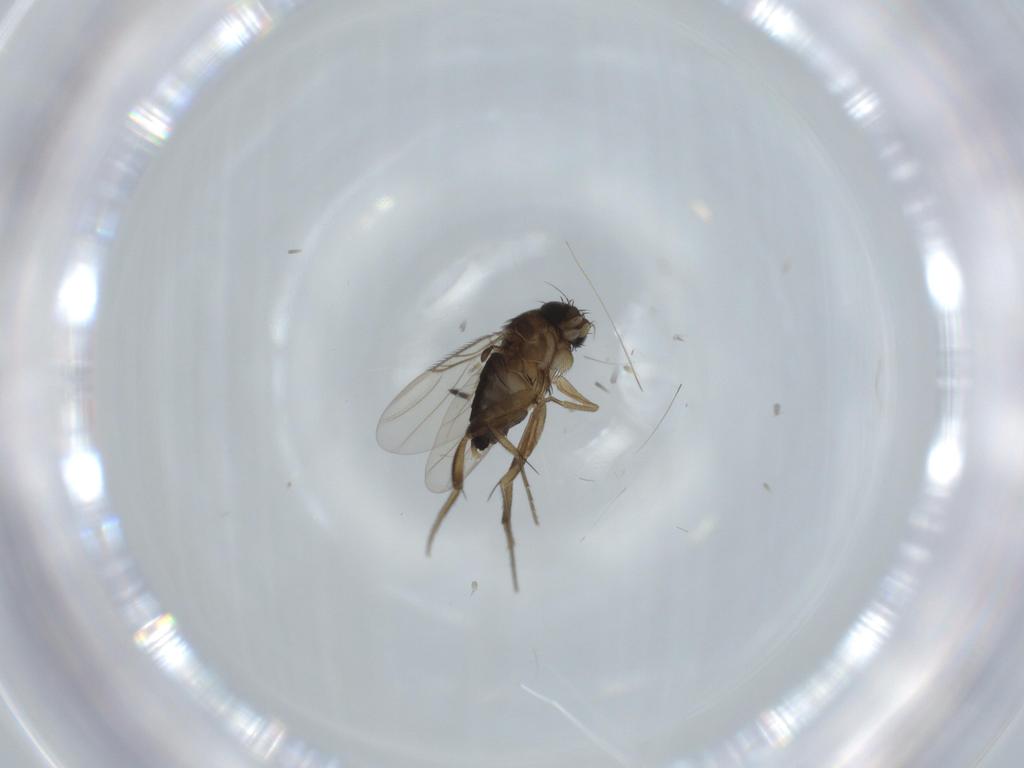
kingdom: Animalia
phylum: Arthropoda
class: Insecta
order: Diptera
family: Phoridae
